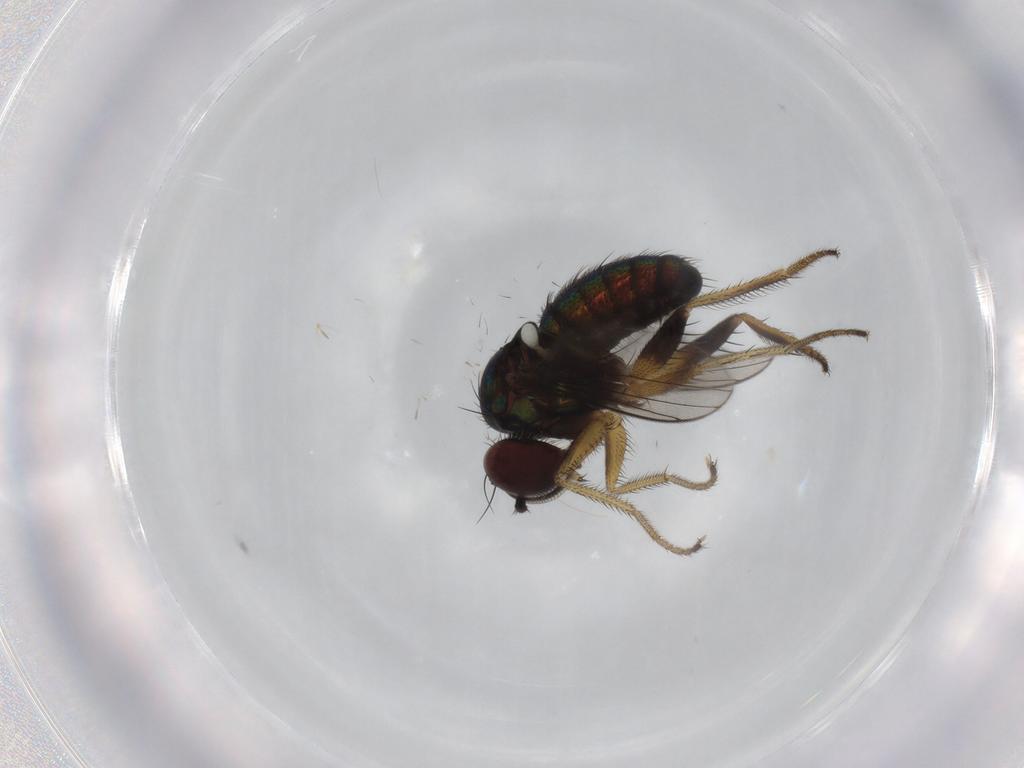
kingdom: Animalia
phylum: Arthropoda
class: Insecta
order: Diptera
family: Dolichopodidae
